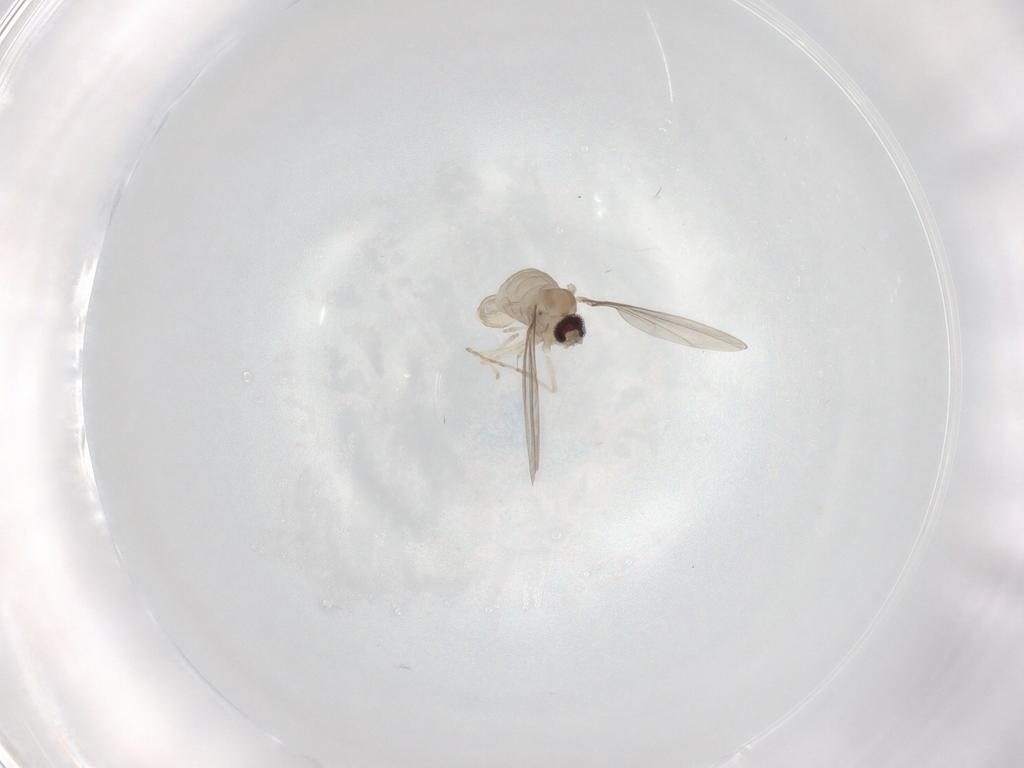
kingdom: Animalia
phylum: Arthropoda
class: Insecta
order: Diptera
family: Cecidomyiidae
